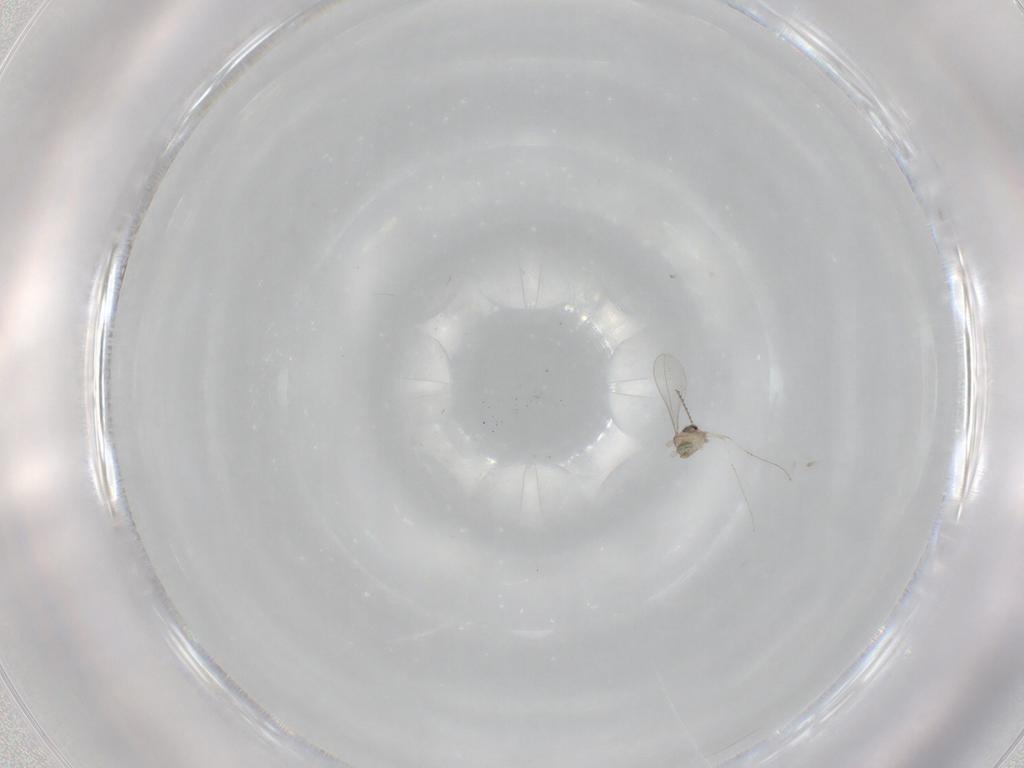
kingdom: Animalia
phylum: Arthropoda
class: Insecta
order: Diptera
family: Cecidomyiidae
